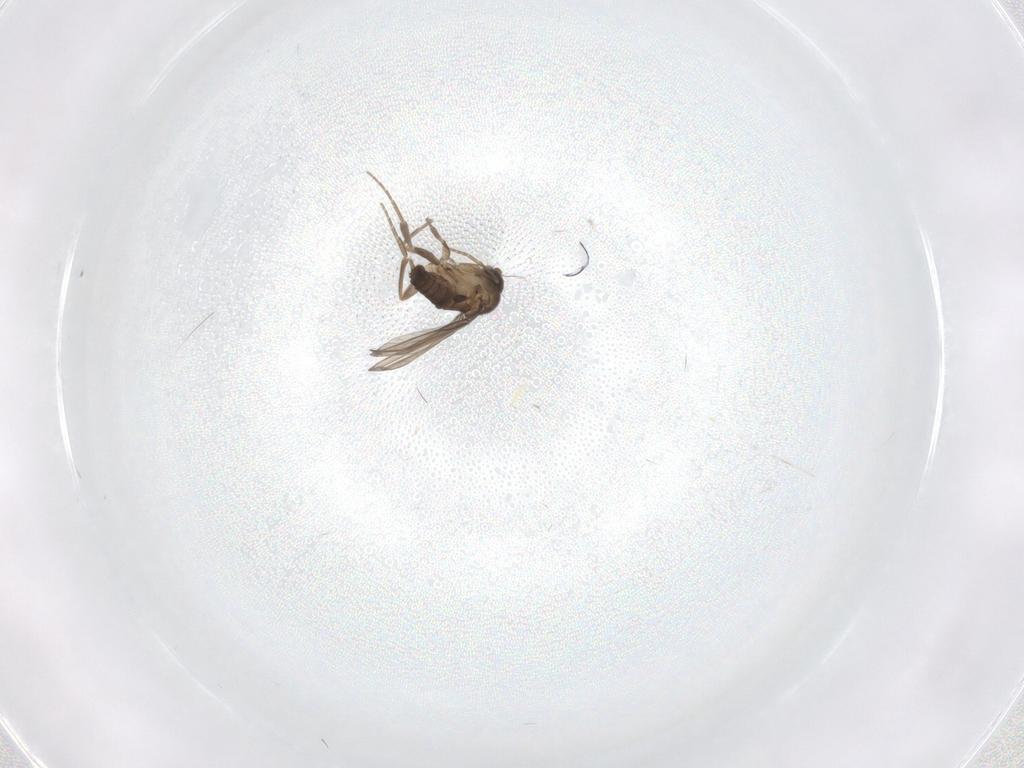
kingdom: Animalia
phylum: Arthropoda
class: Insecta
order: Diptera
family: Phoridae
